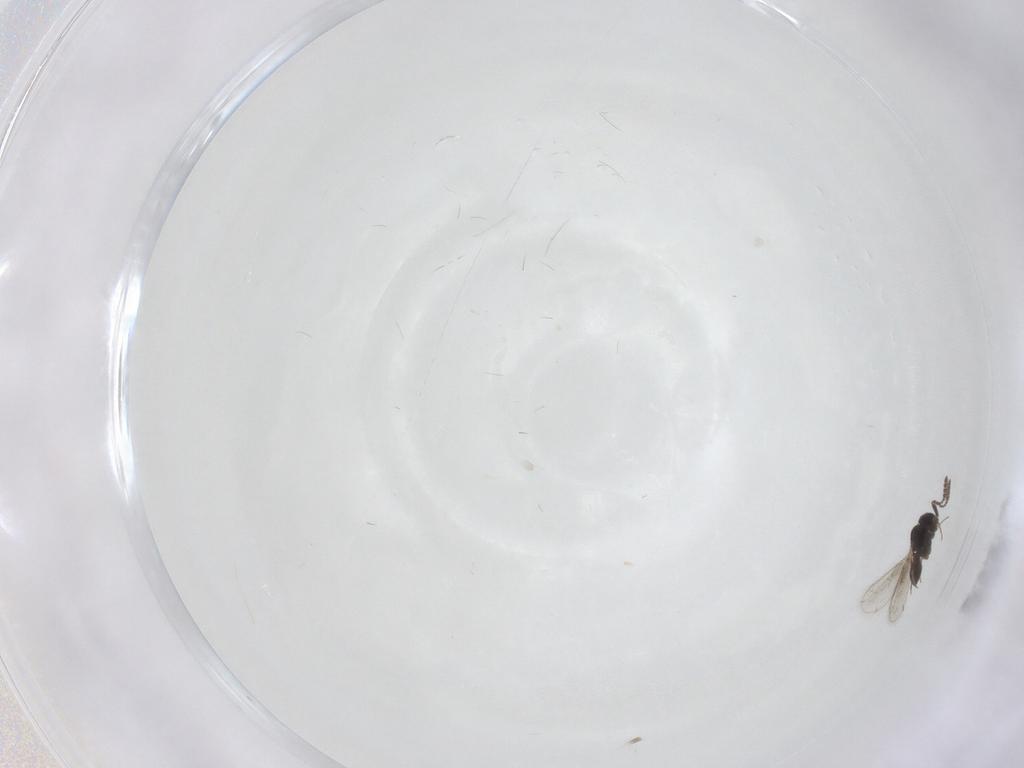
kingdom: Animalia
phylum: Arthropoda
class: Insecta
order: Hymenoptera
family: Scelionidae
